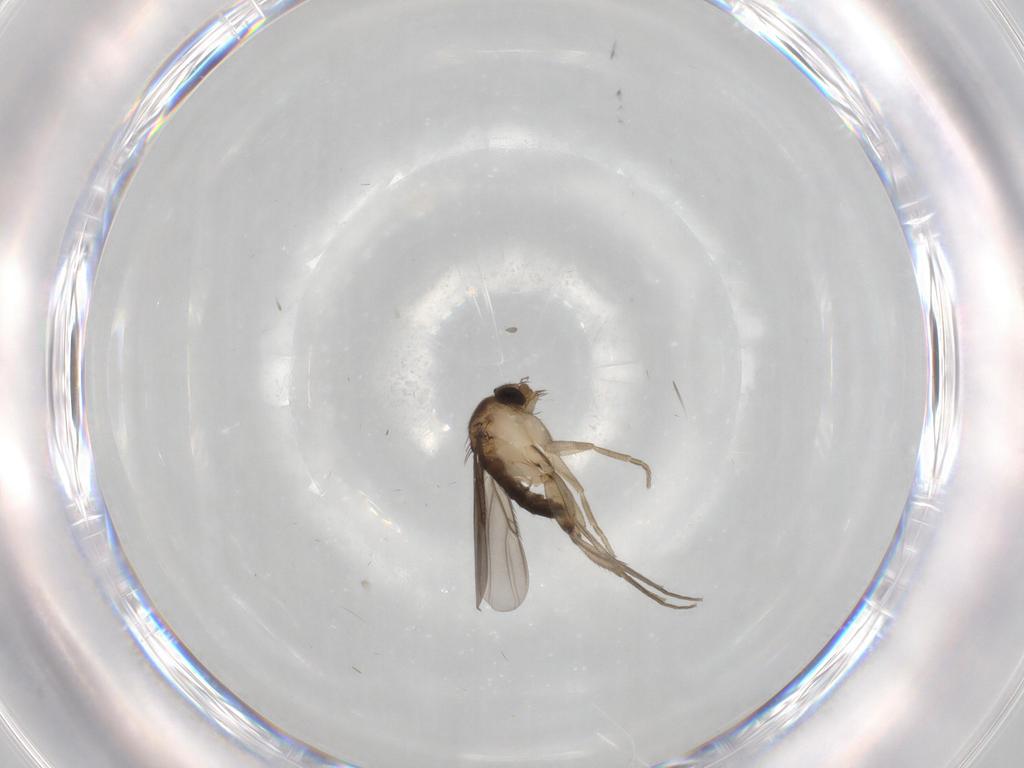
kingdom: Animalia
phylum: Arthropoda
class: Insecta
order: Diptera
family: Phoridae
